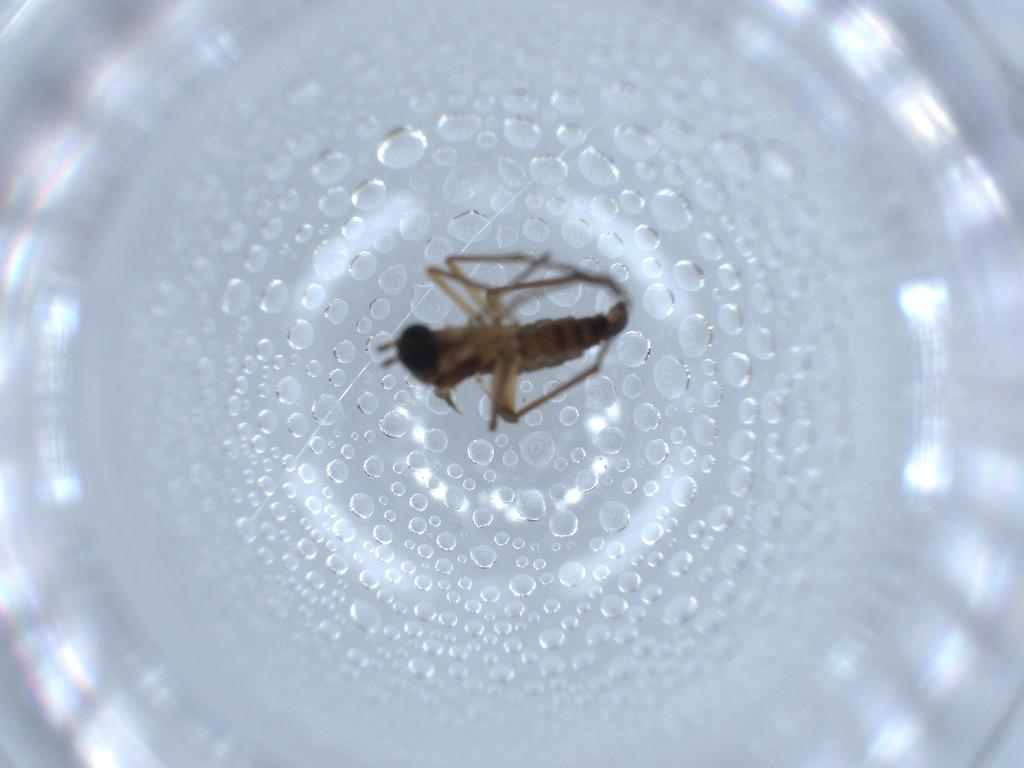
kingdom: Animalia
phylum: Arthropoda
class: Insecta
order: Diptera
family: Sciaridae
